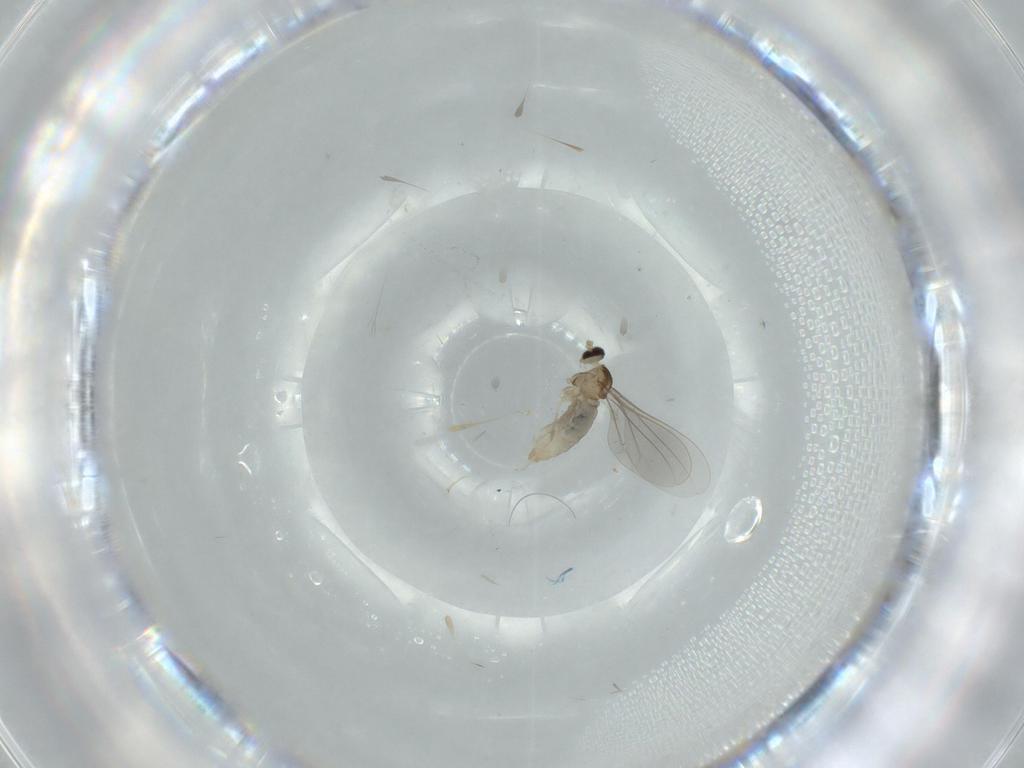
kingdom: Animalia
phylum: Arthropoda
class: Insecta
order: Diptera
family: Cecidomyiidae
